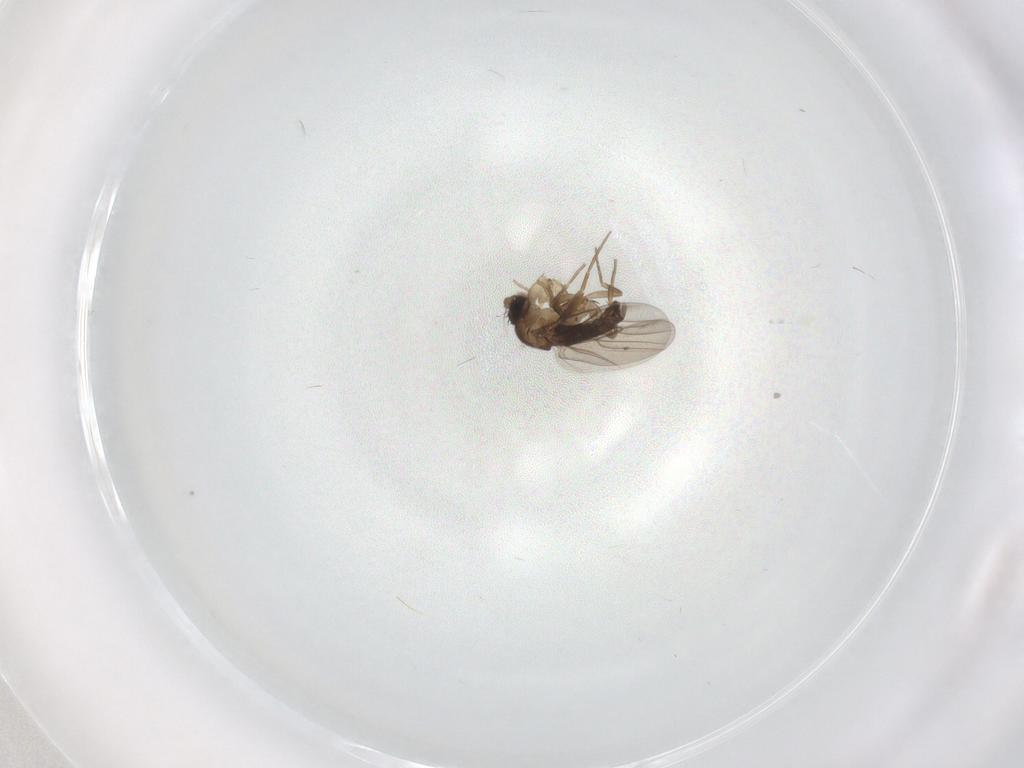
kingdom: Animalia
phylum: Arthropoda
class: Insecta
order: Diptera
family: Phoridae
